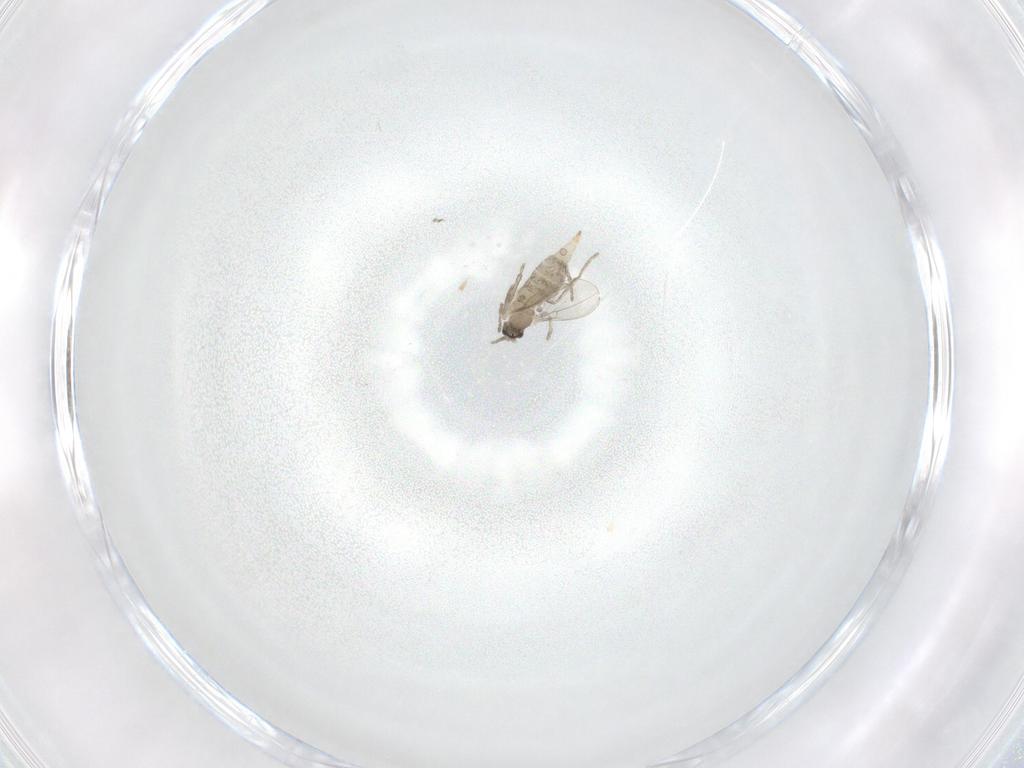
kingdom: Animalia
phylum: Arthropoda
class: Insecta
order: Diptera
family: Cecidomyiidae
